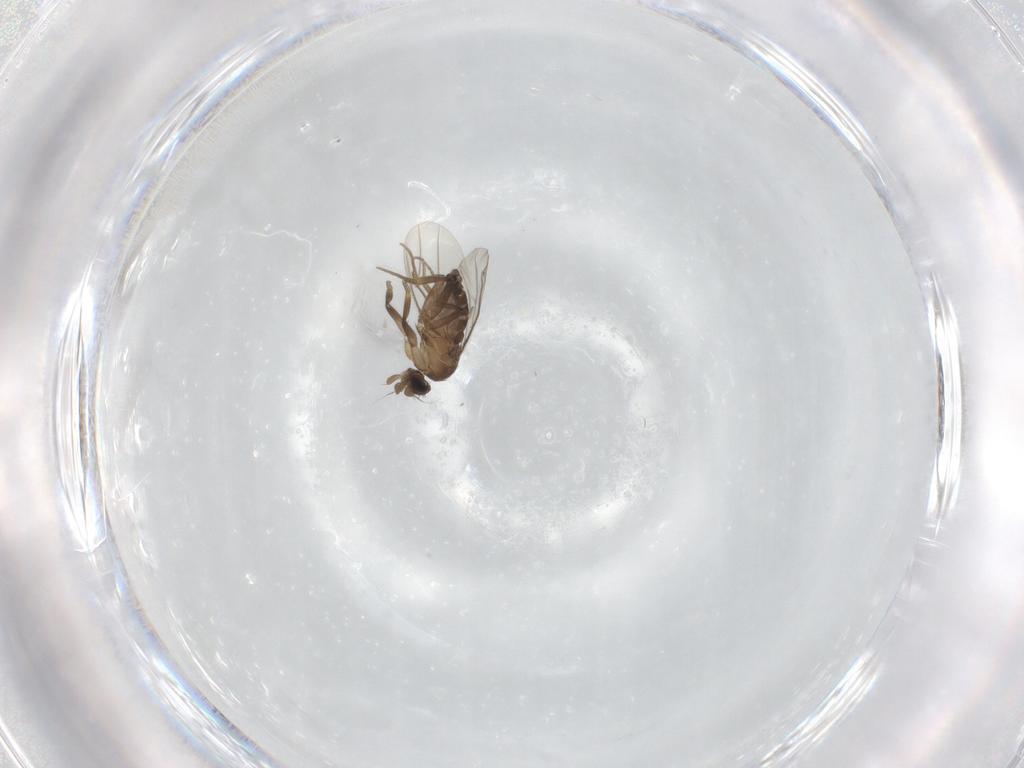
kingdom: Animalia
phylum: Arthropoda
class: Insecta
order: Diptera
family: Phoridae
